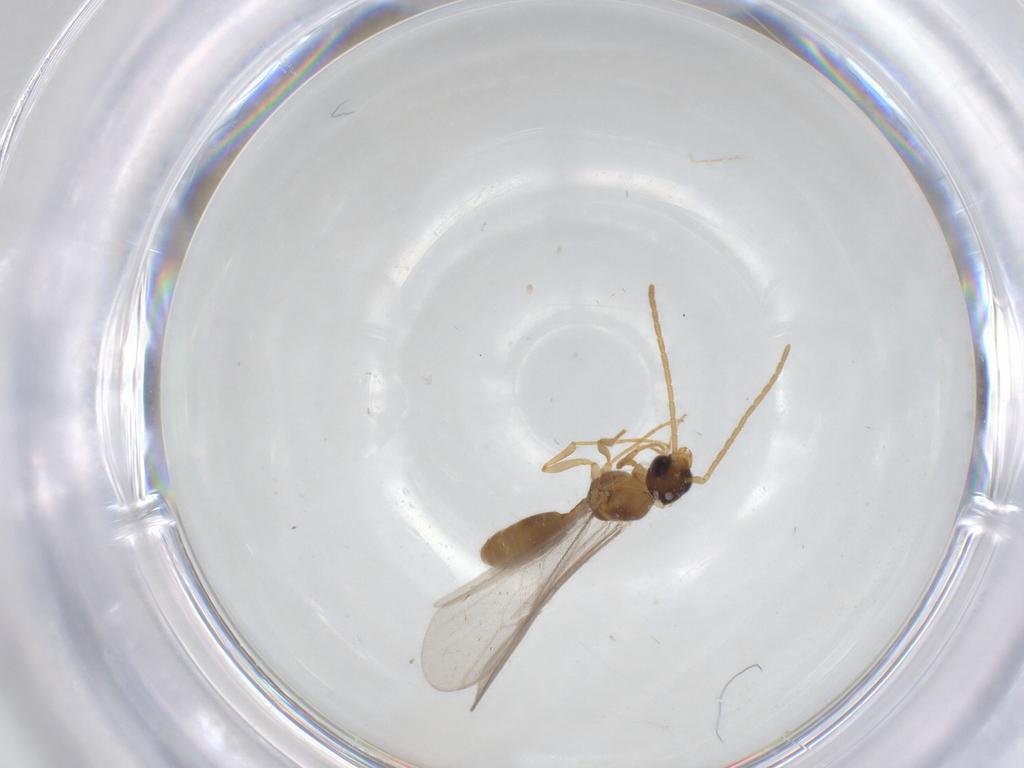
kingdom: Animalia
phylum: Arthropoda
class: Insecta
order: Hymenoptera
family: Formicidae
